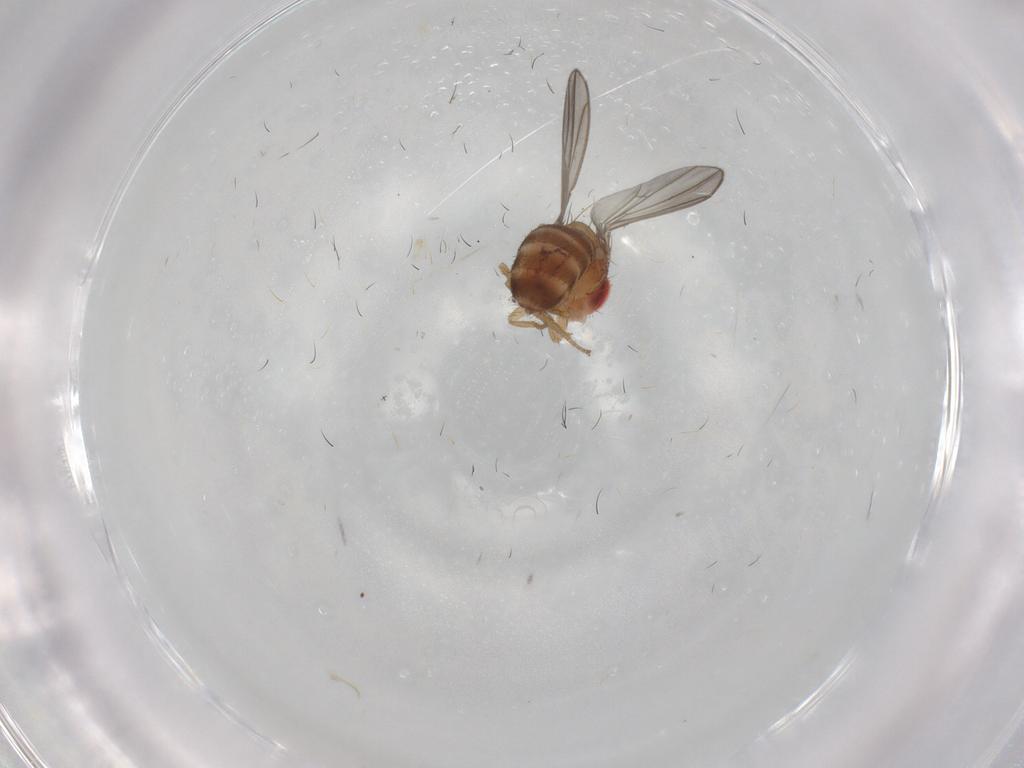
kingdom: Animalia
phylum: Arthropoda
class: Insecta
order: Diptera
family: Drosophilidae
